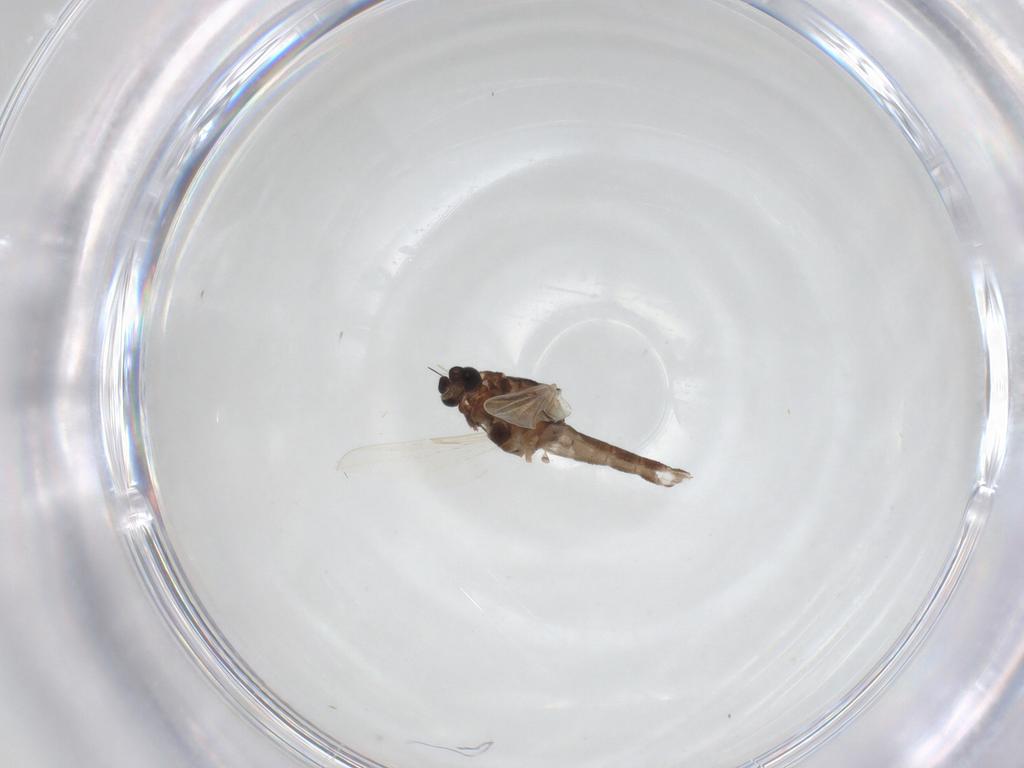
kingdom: Animalia
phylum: Arthropoda
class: Insecta
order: Diptera
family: Ceratopogonidae
